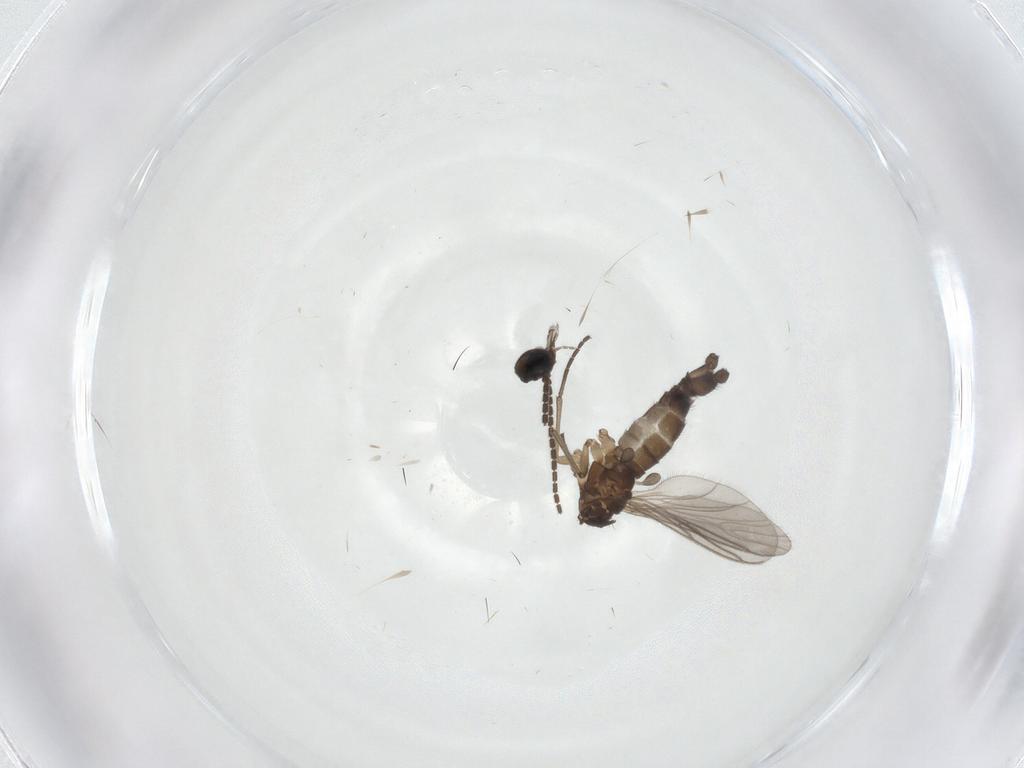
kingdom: Animalia
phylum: Arthropoda
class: Insecta
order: Diptera
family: Sciaridae
